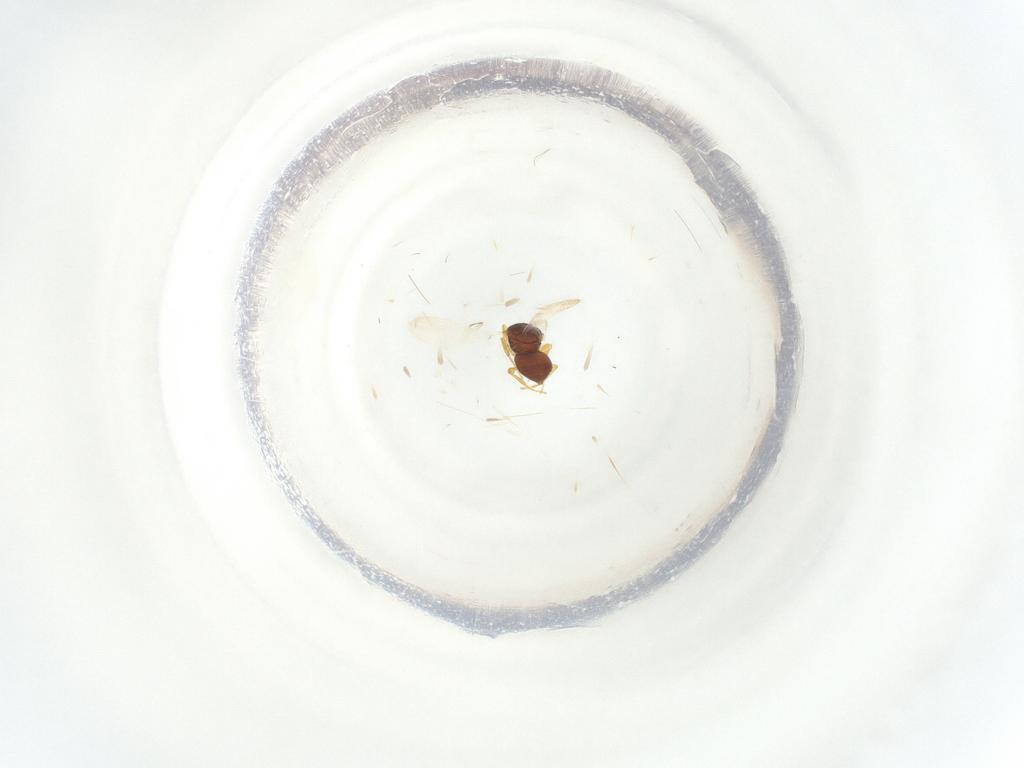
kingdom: Animalia
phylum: Arthropoda
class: Insecta
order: Hymenoptera
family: Platygastridae
